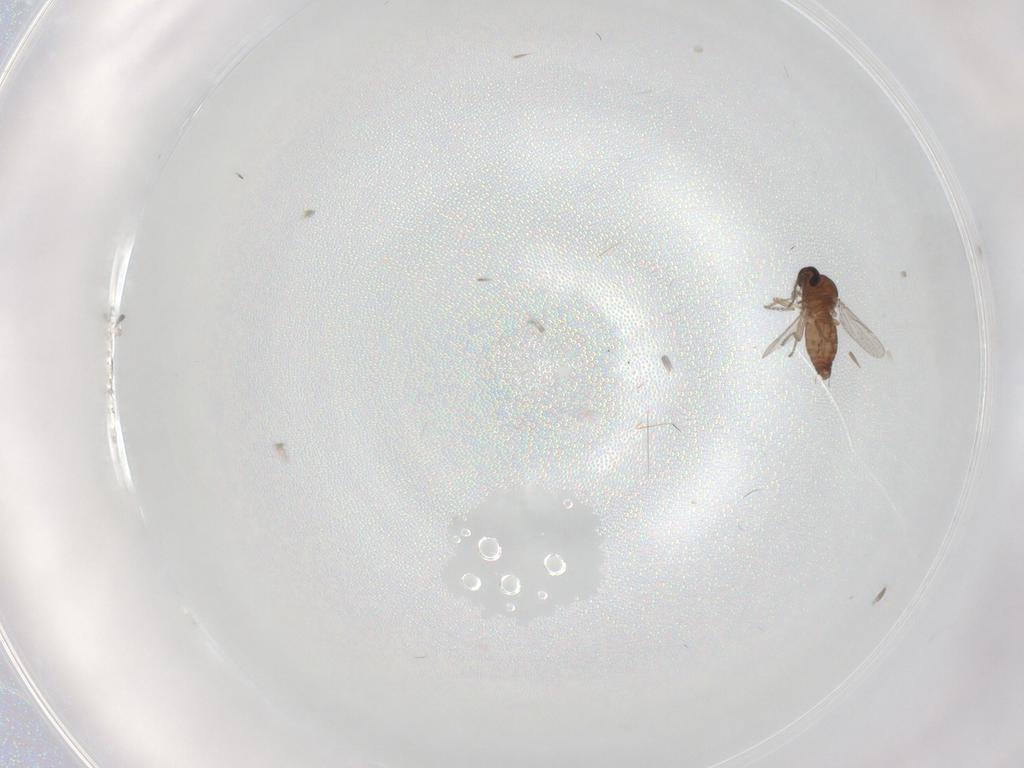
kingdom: Animalia
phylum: Arthropoda
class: Insecta
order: Diptera
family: Ceratopogonidae
